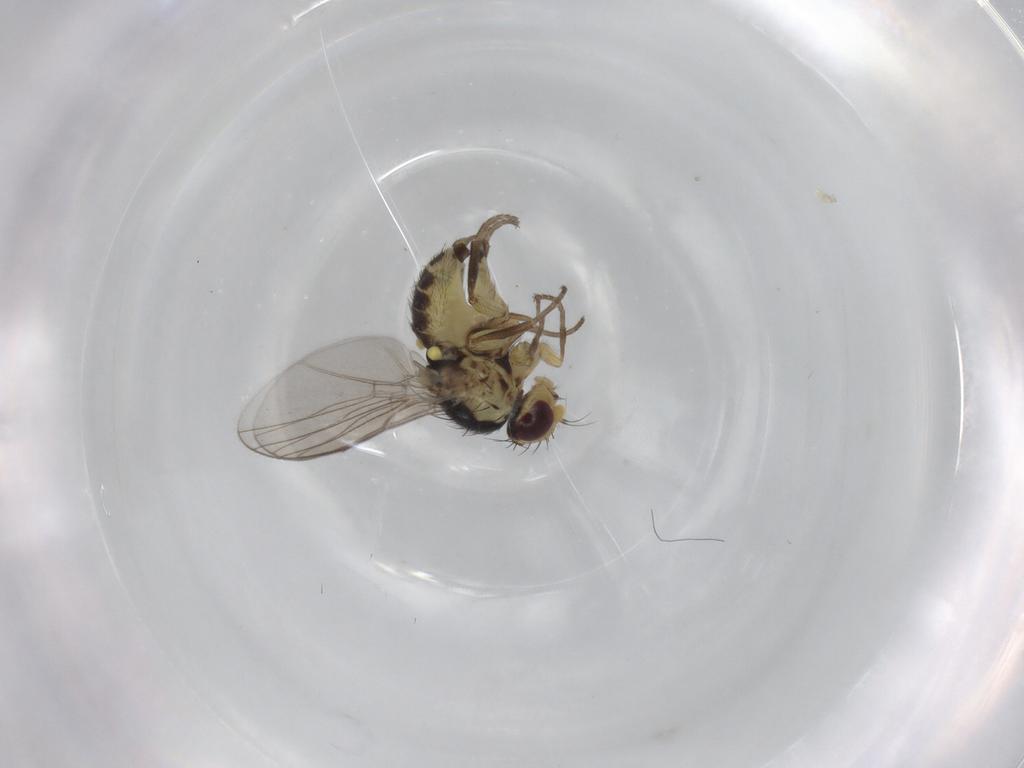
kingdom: Animalia
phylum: Arthropoda
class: Insecta
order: Diptera
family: Agromyzidae
